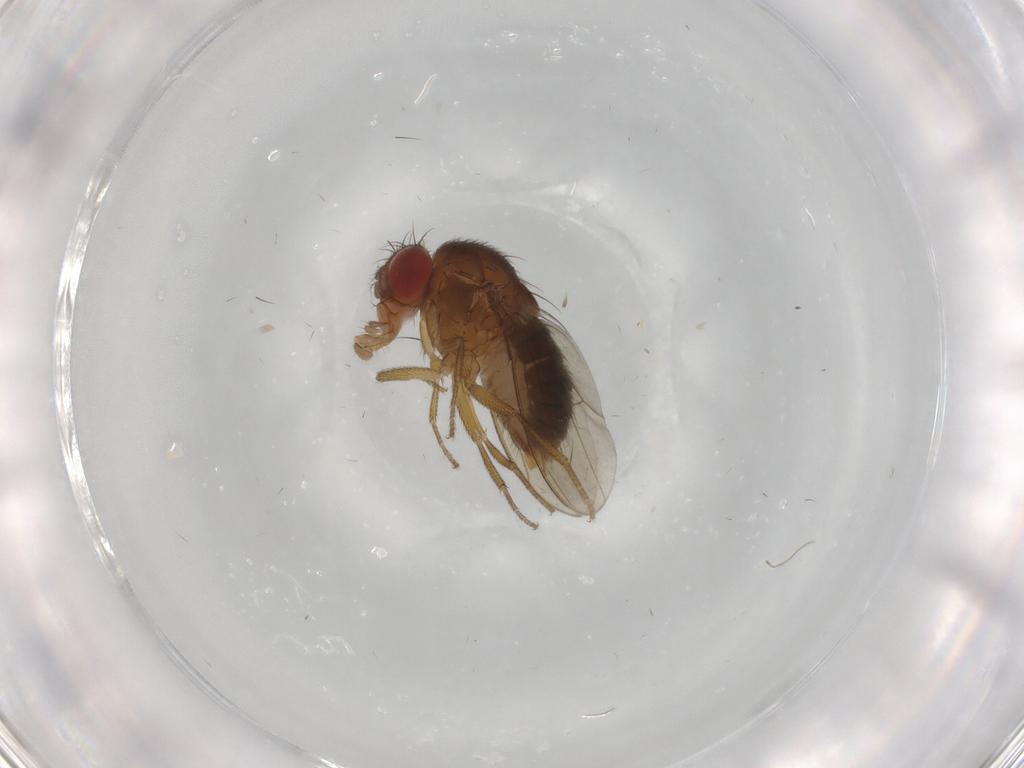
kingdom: Animalia
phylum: Arthropoda
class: Insecta
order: Diptera
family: Drosophilidae
